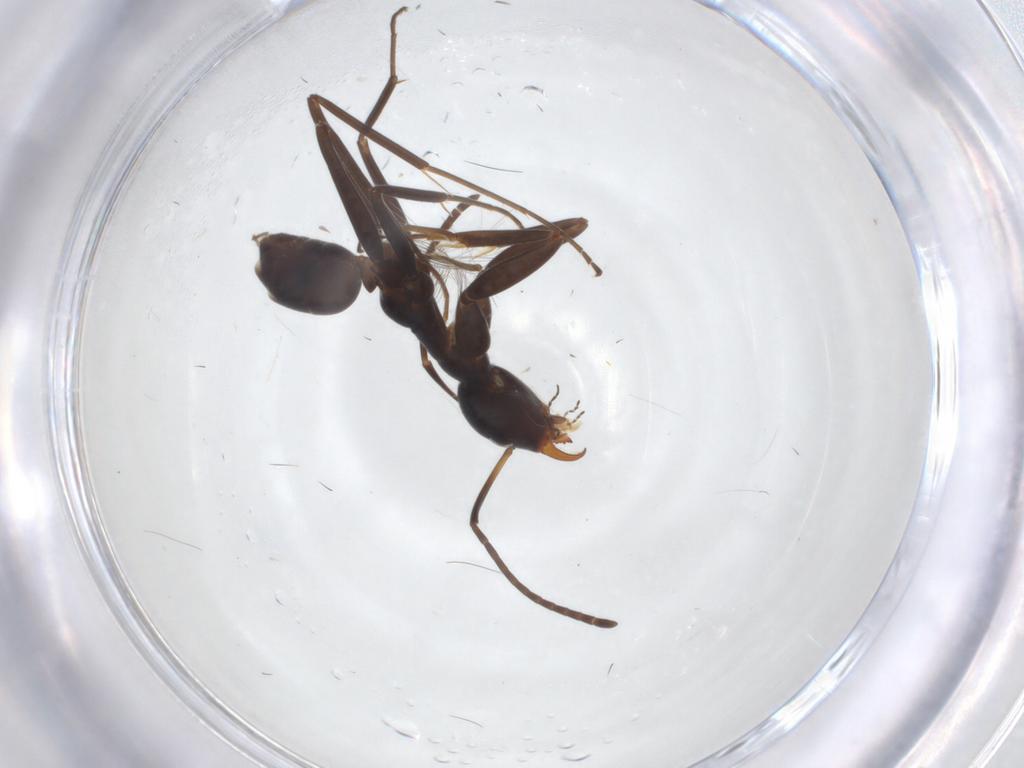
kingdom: Animalia
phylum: Arthropoda
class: Insecta
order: Hymenoptera
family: Formicidae
